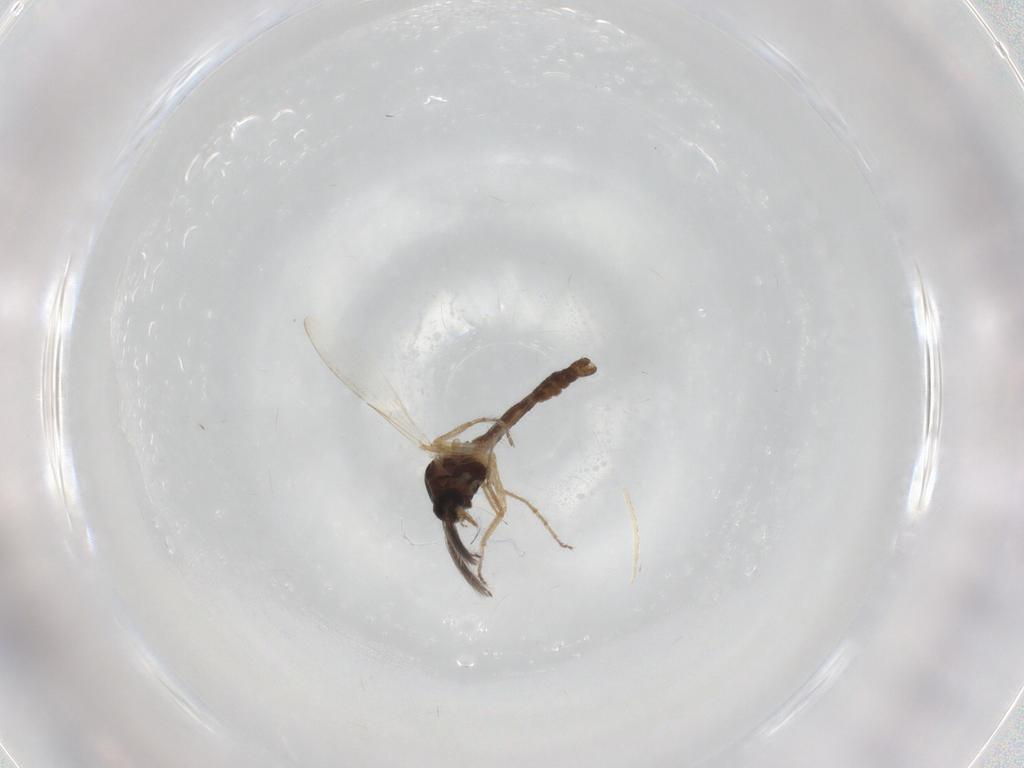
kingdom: Animalia
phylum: Arthropoda
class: Insecta
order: Diptera
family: Ceratopogonidae
